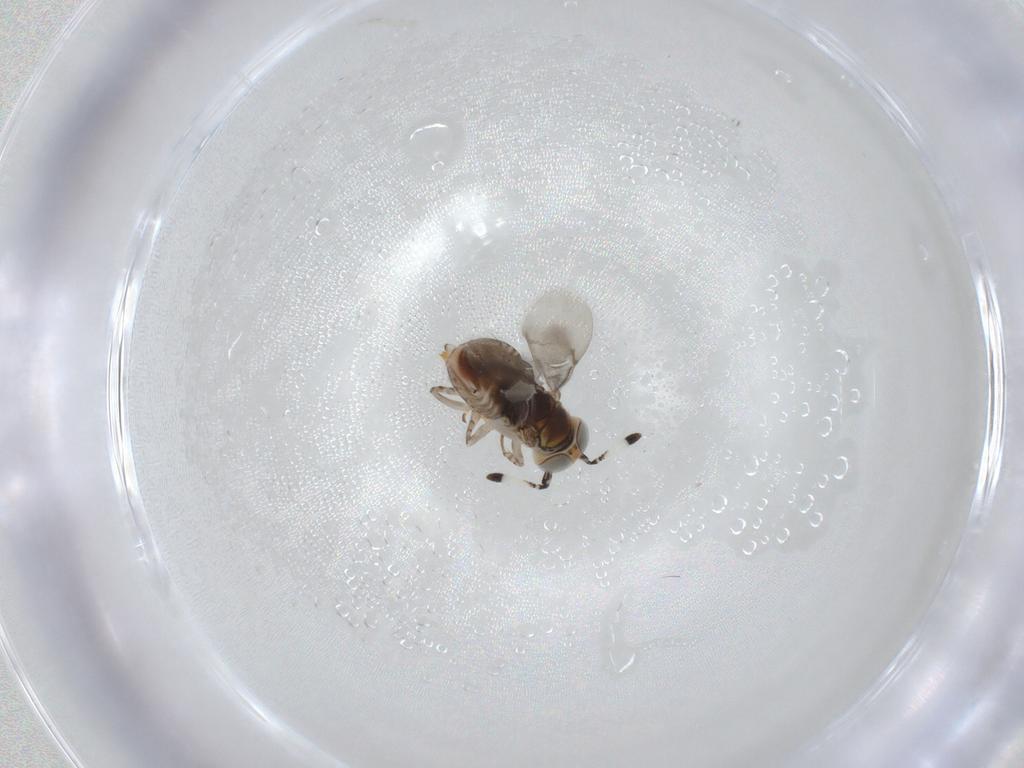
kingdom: Animalia
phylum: Arthropoda
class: Insecta
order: Hymenoptera
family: Encyrtidae
